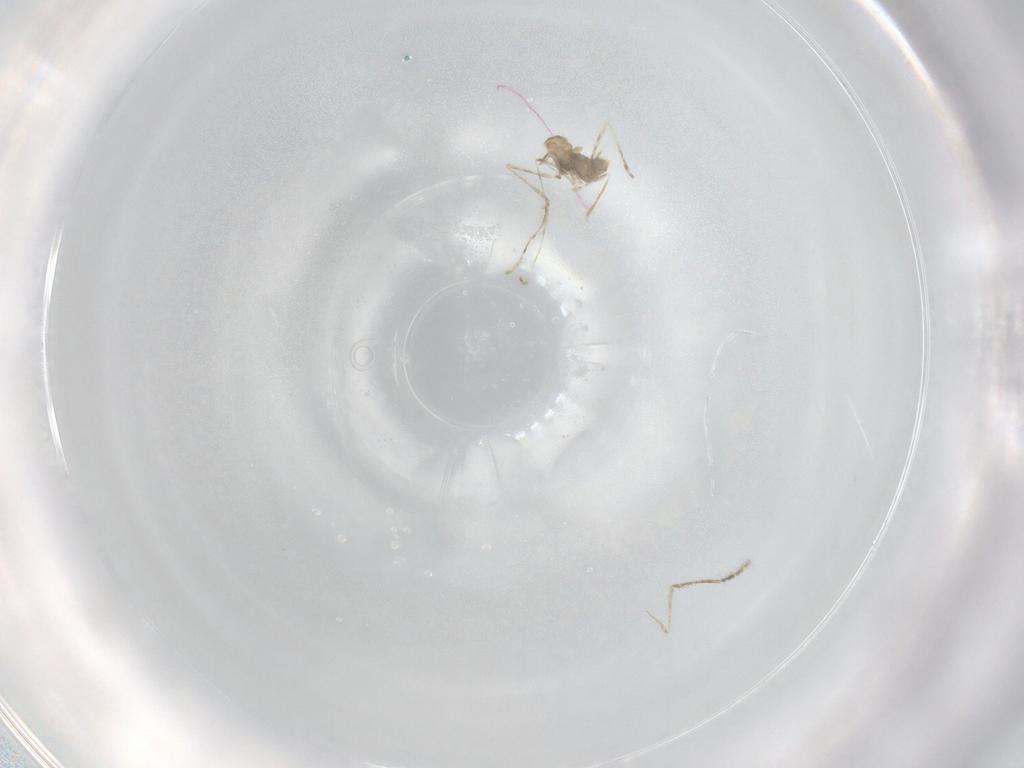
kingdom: Animalia
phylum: Arthropoda
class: Insecta
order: Diptera
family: Cecidomyiidae
